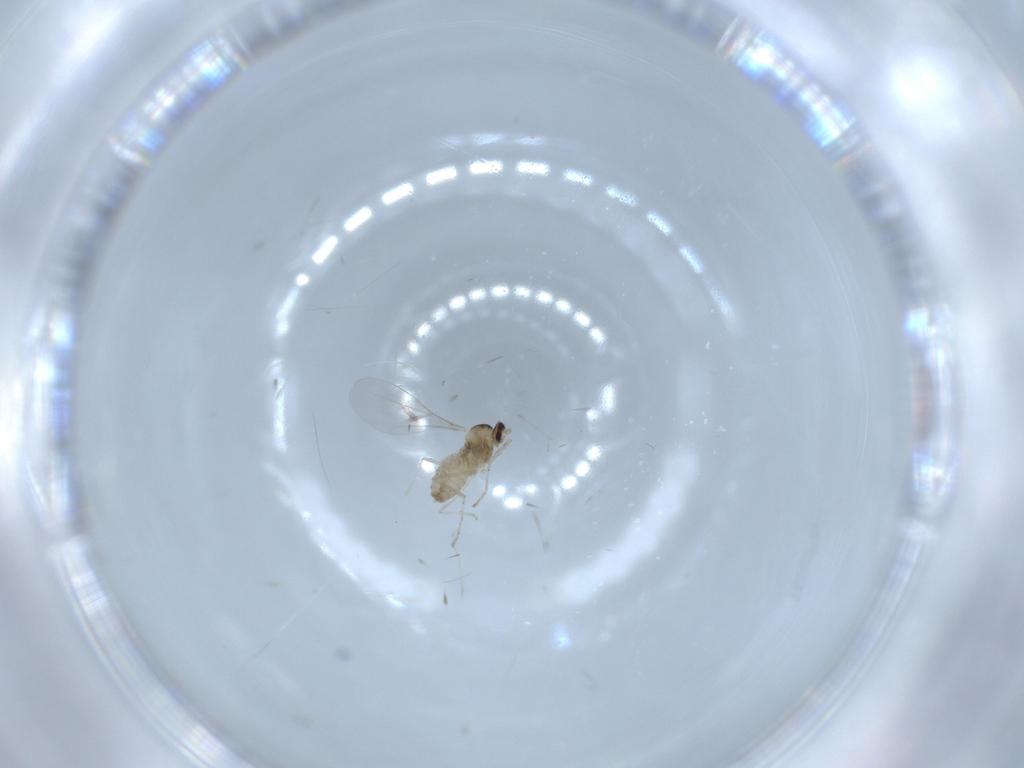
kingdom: Animalia
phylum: Arthropoda
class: Insecta
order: Diptera
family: Cecidomyiidae
